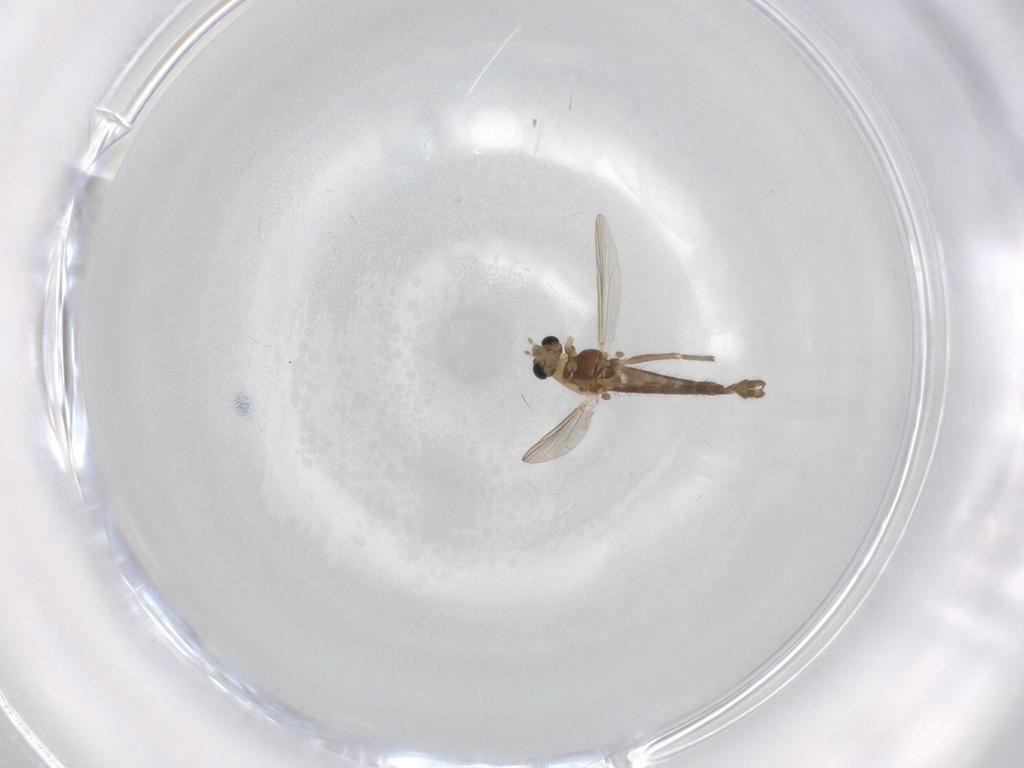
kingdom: Animalia
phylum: Arthropoda
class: Insecta
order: Diptera
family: Chironomidae
